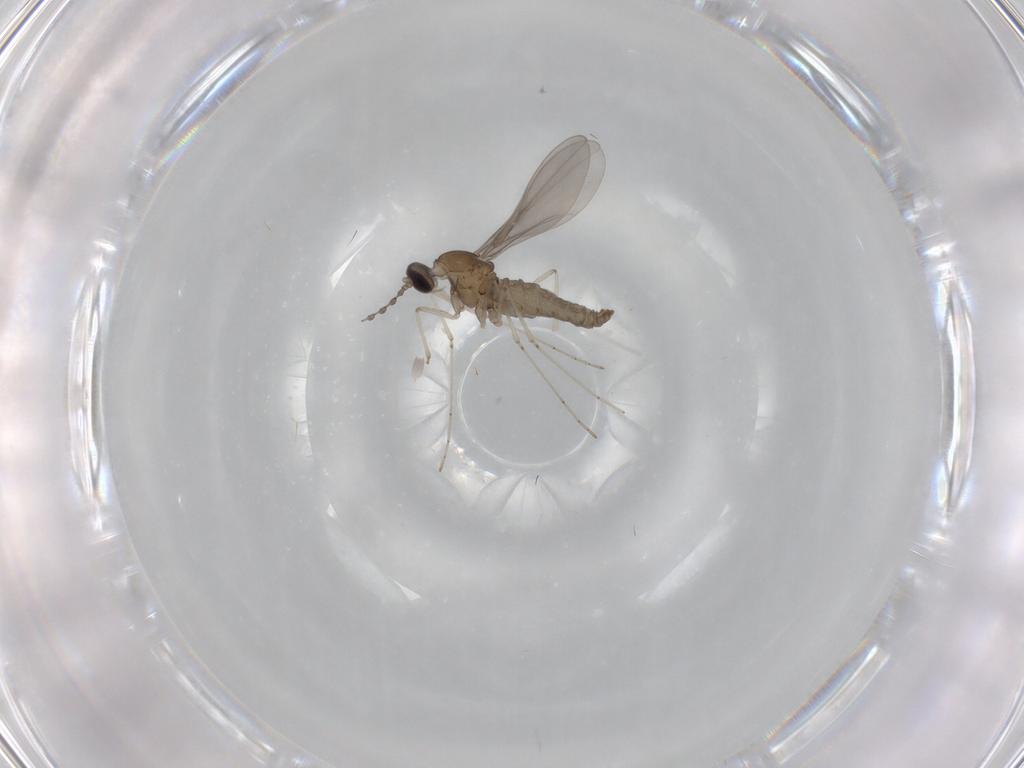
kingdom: Animalia
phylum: Arthropoda
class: Insecta
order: Diptera
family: Phoridae
